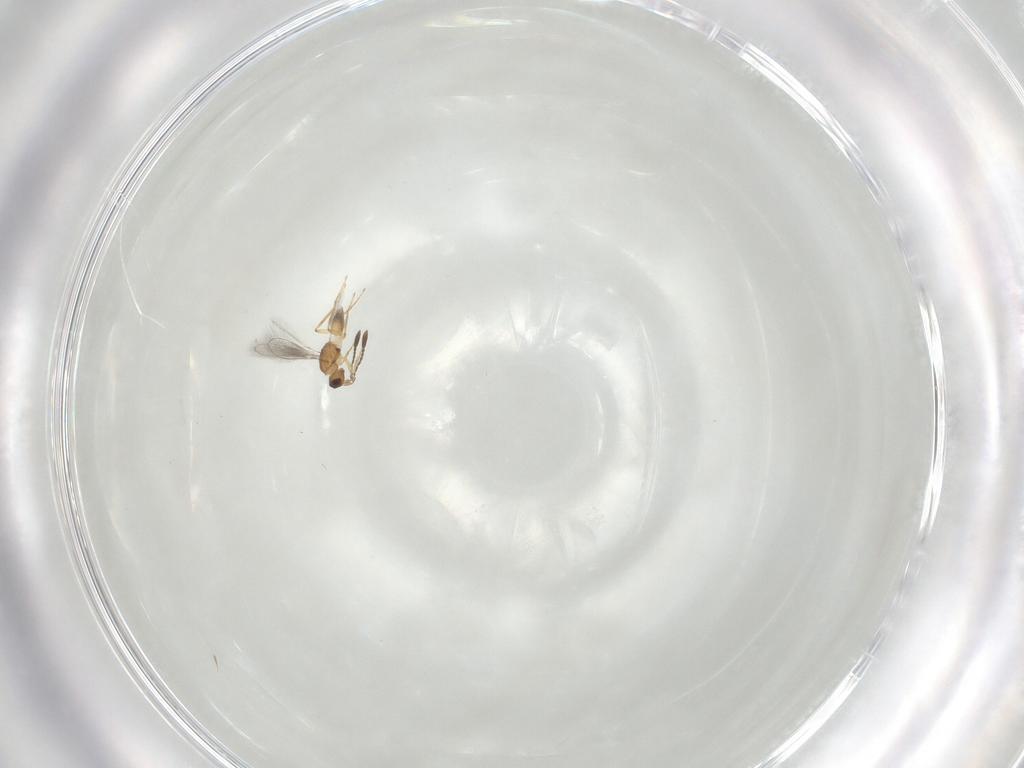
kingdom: Animalia
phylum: Arthropoda
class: Insecta
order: Hymenoptera
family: Mymaridae
